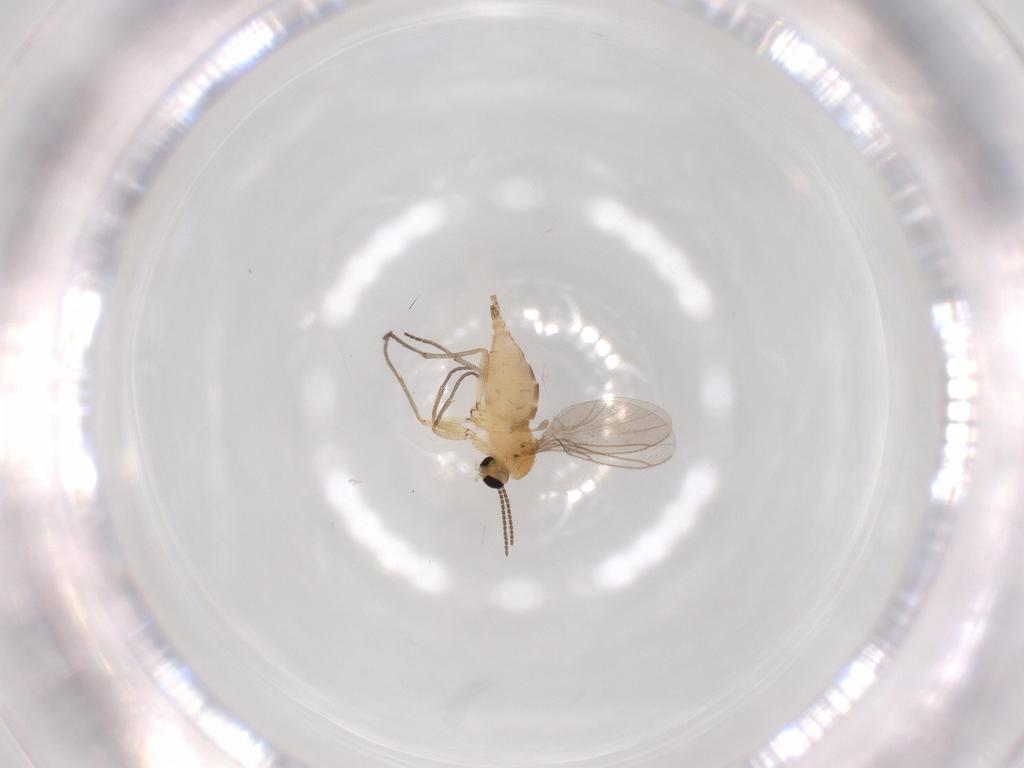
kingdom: Animalia
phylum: Arthropoda
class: Insecta
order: Diptera
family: Sciaridae
